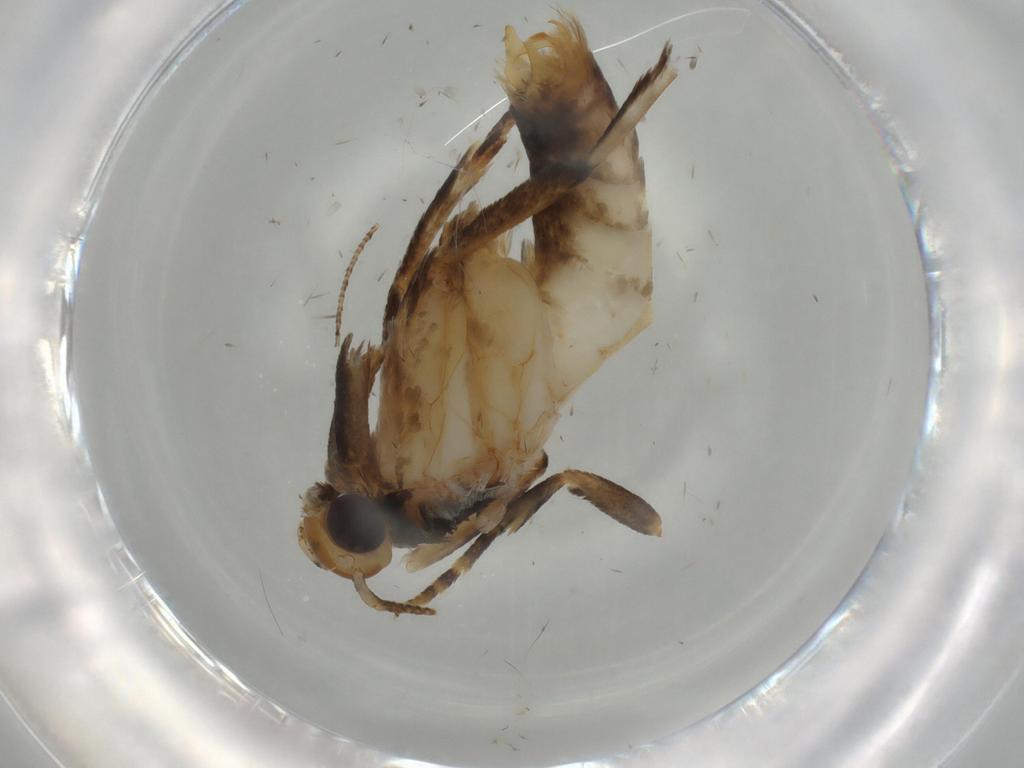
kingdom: Animalia
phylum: Arthropoda
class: Insecta
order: Lepidoptera
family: Oecophoridae
